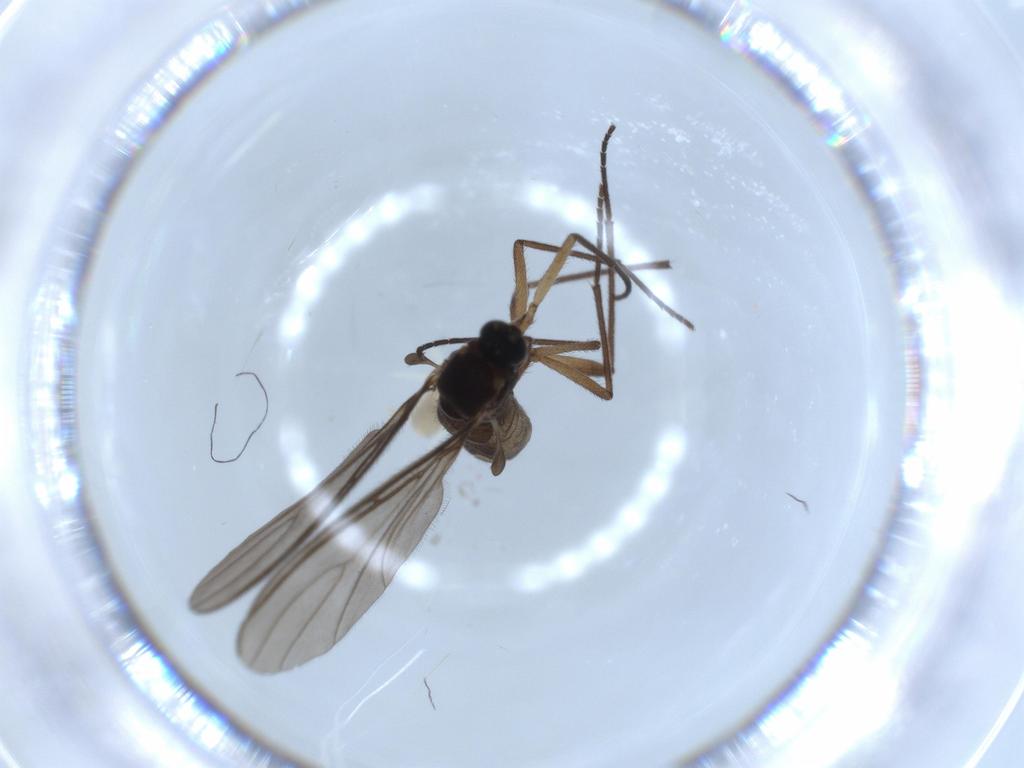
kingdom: Animalia
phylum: Arthropoda
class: Insecta
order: Diptera
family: Sciaridae
